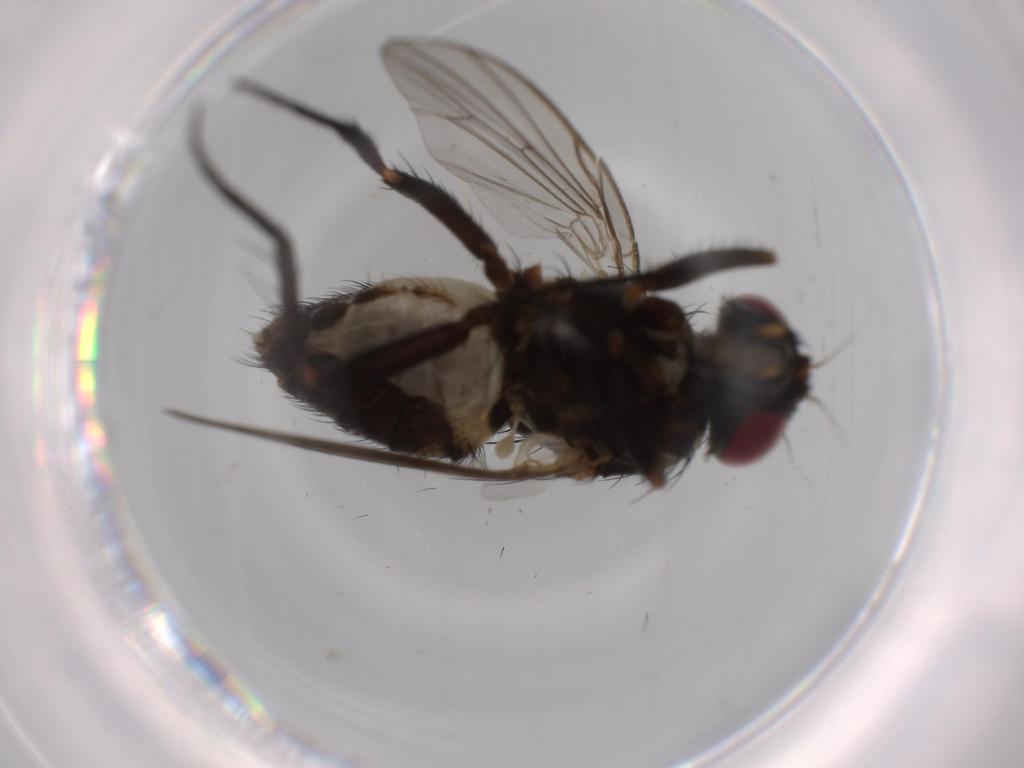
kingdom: Animalia
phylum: Arthropoda
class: Insecta
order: Diptera
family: Fannia
